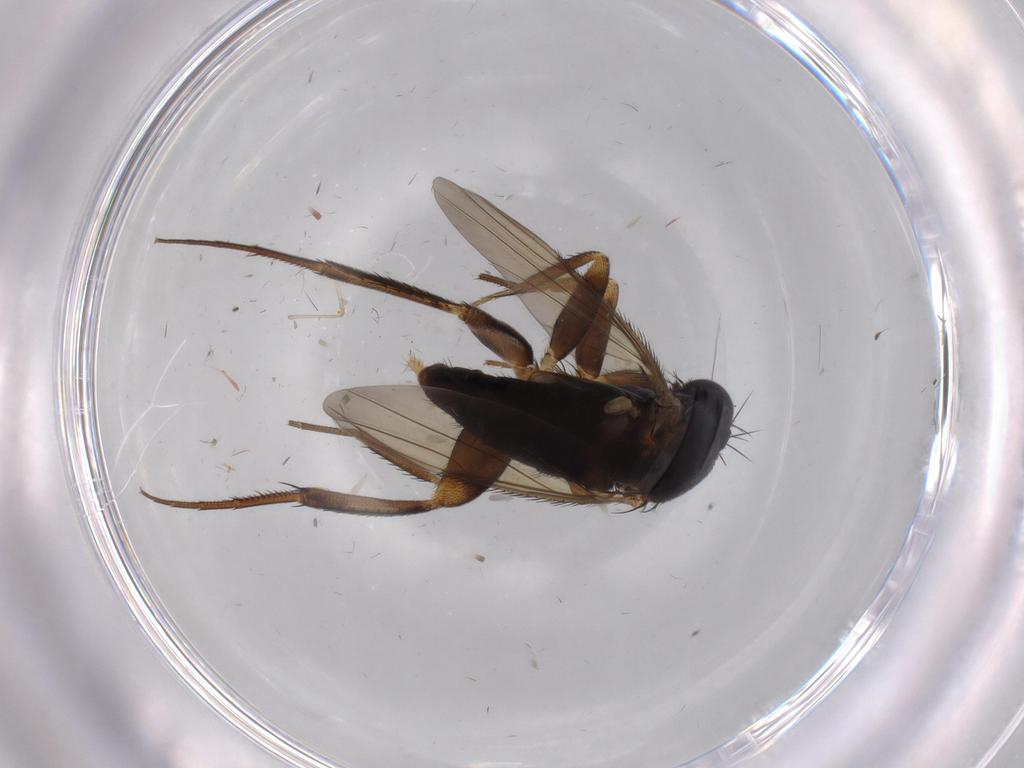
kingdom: Animalia
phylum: Arthropoda
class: Insecta
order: Diptera
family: Phoridae
